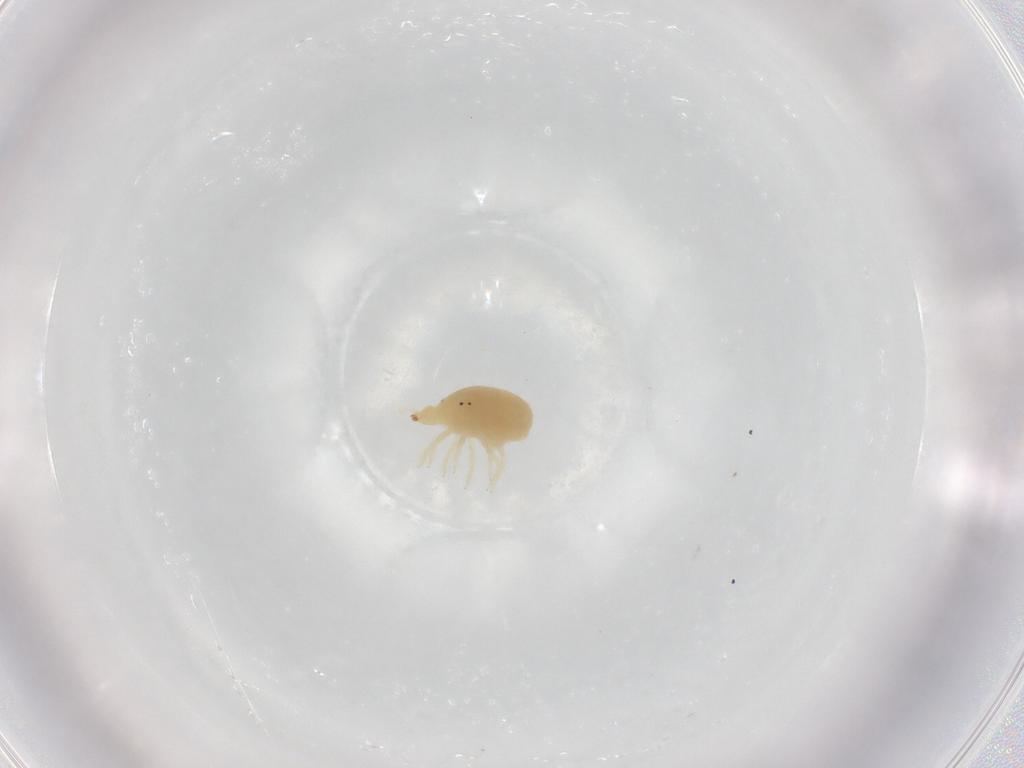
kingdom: Animalia
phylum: Arthropoda
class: Arachnida
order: Trombidiformes
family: Bdellidae
